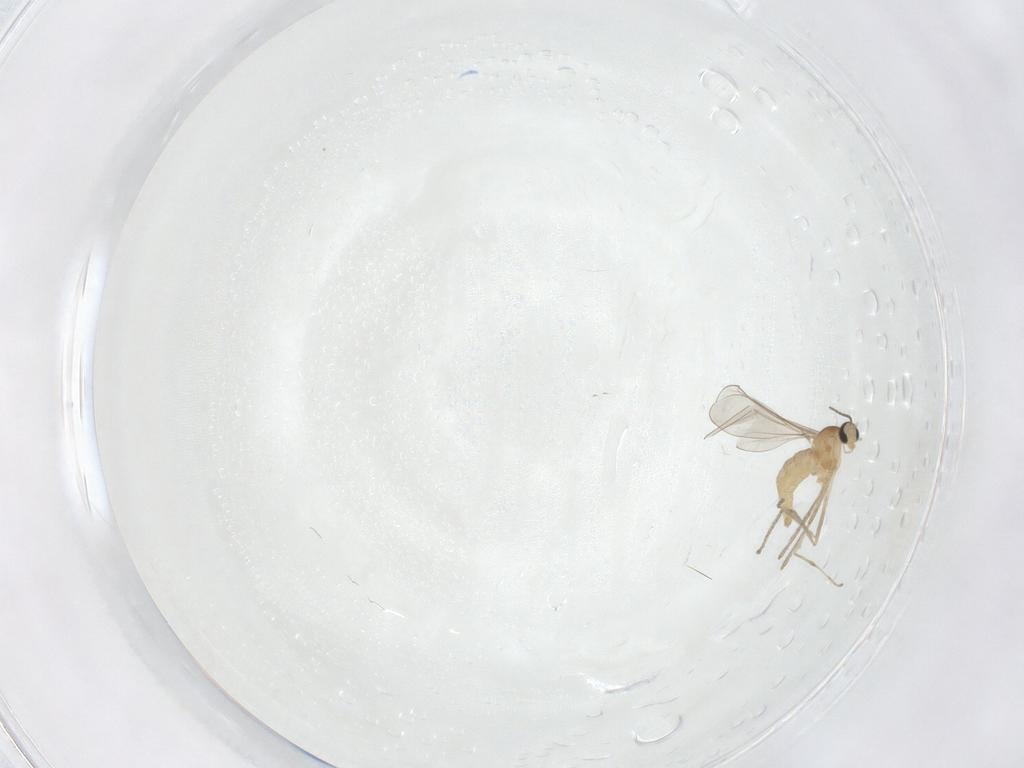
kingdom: Animalia
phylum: Arthropoda
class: Insecta
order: Diptera
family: Cecidomyiidae
